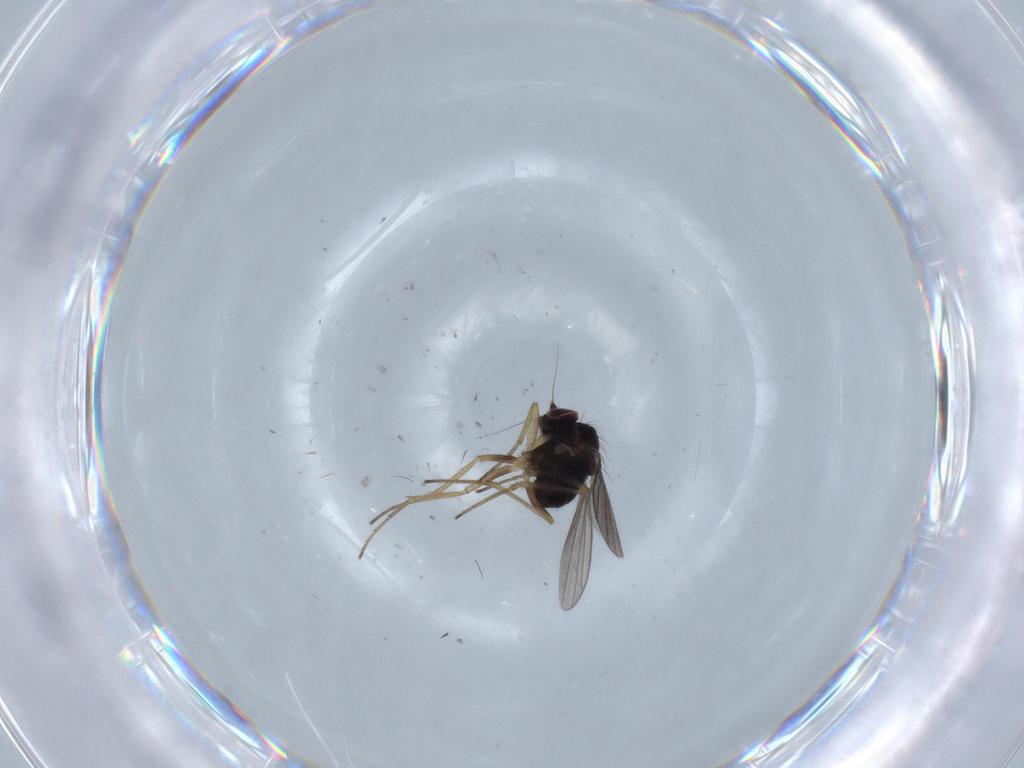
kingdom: Animalia
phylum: Arthropoda
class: Insecta
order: Diptera
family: Dolichopodidae
